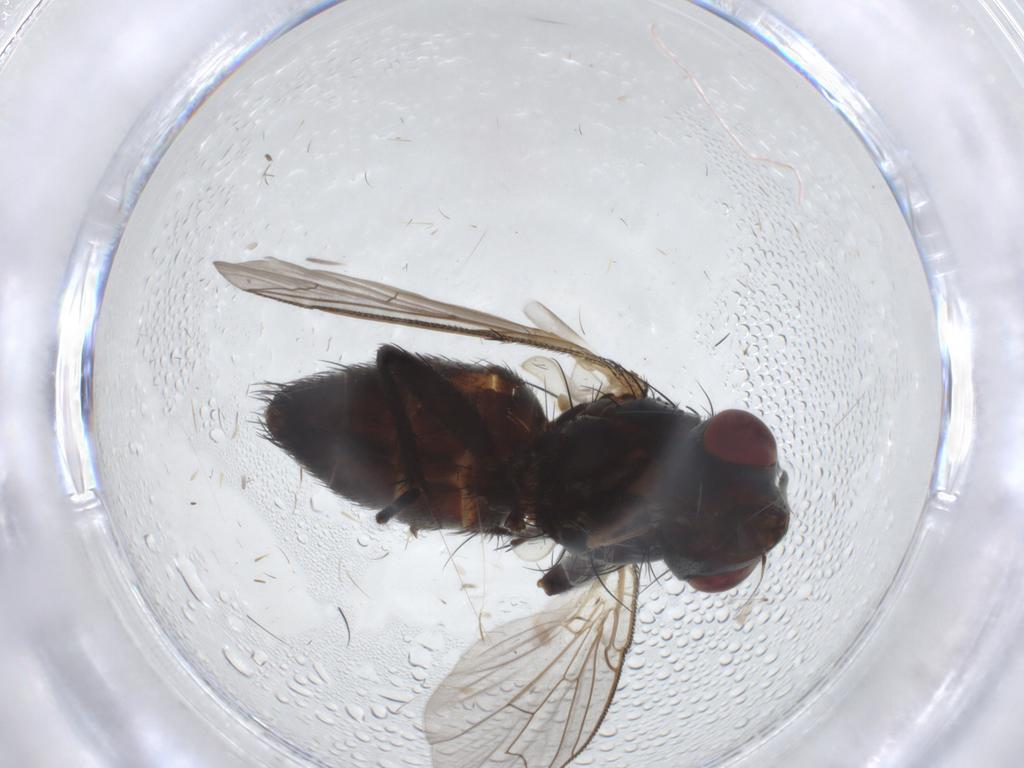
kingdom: Animalia
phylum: Arthropoda
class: Insecta
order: Diptera
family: Sarcophagidae
